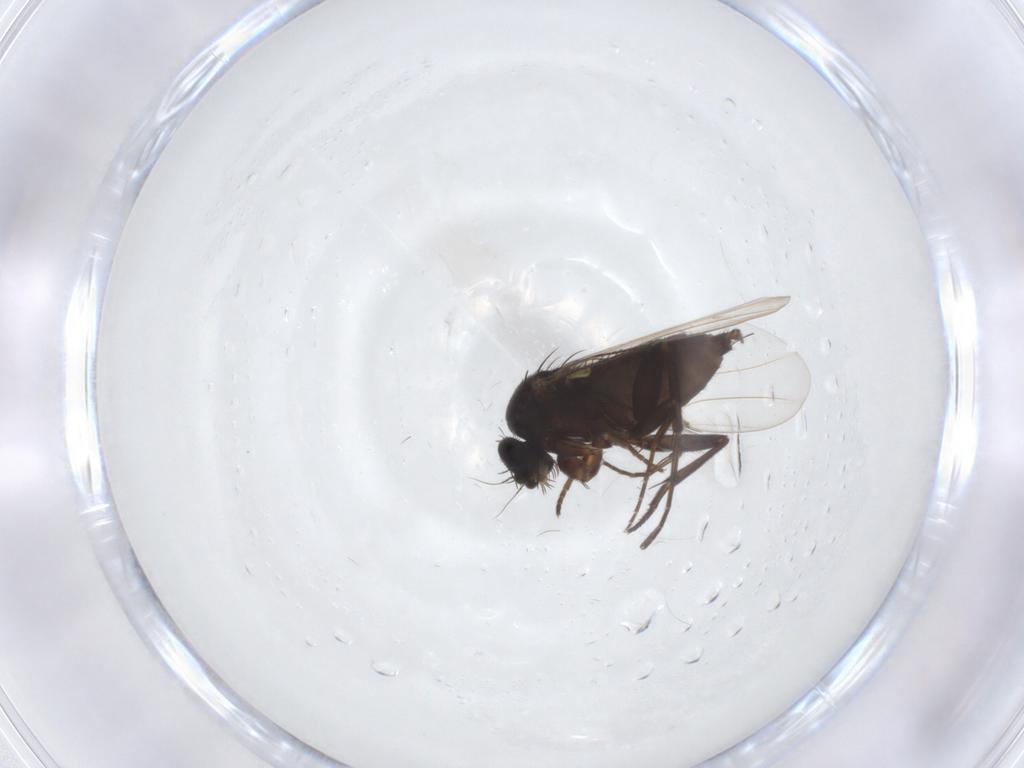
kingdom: Animalia
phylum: Arthropoda
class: Insecta
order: Diptera
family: Phoridae
